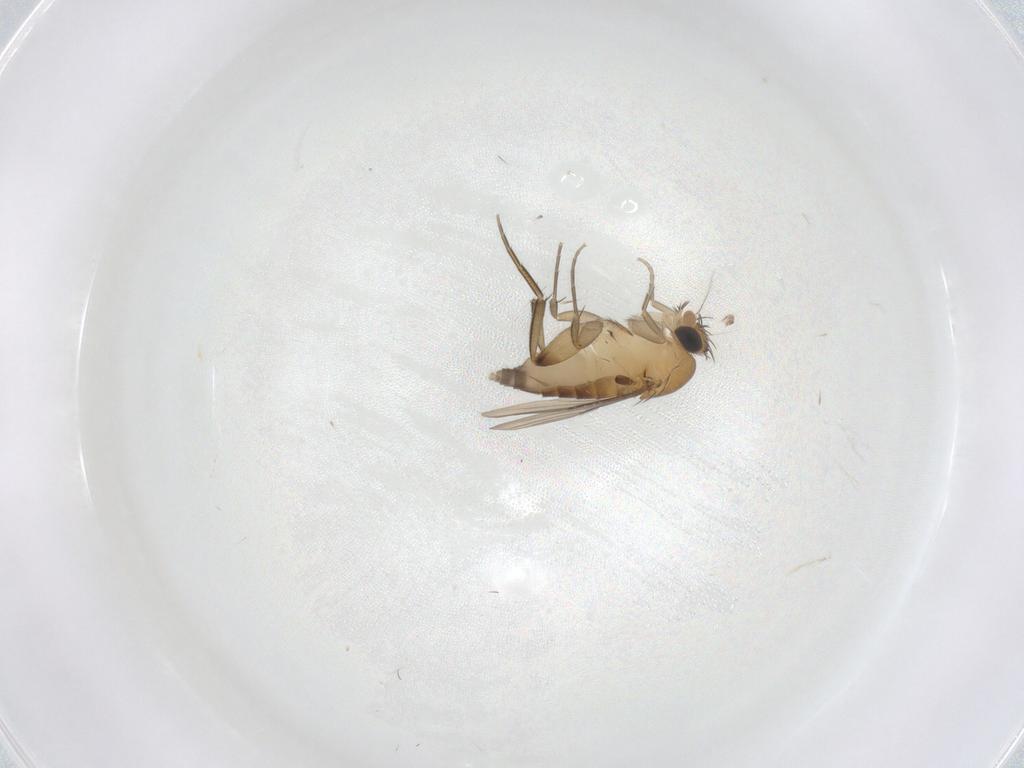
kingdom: Animalia
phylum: Arthropoda
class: Insecta
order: Diptera
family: Phoridae
